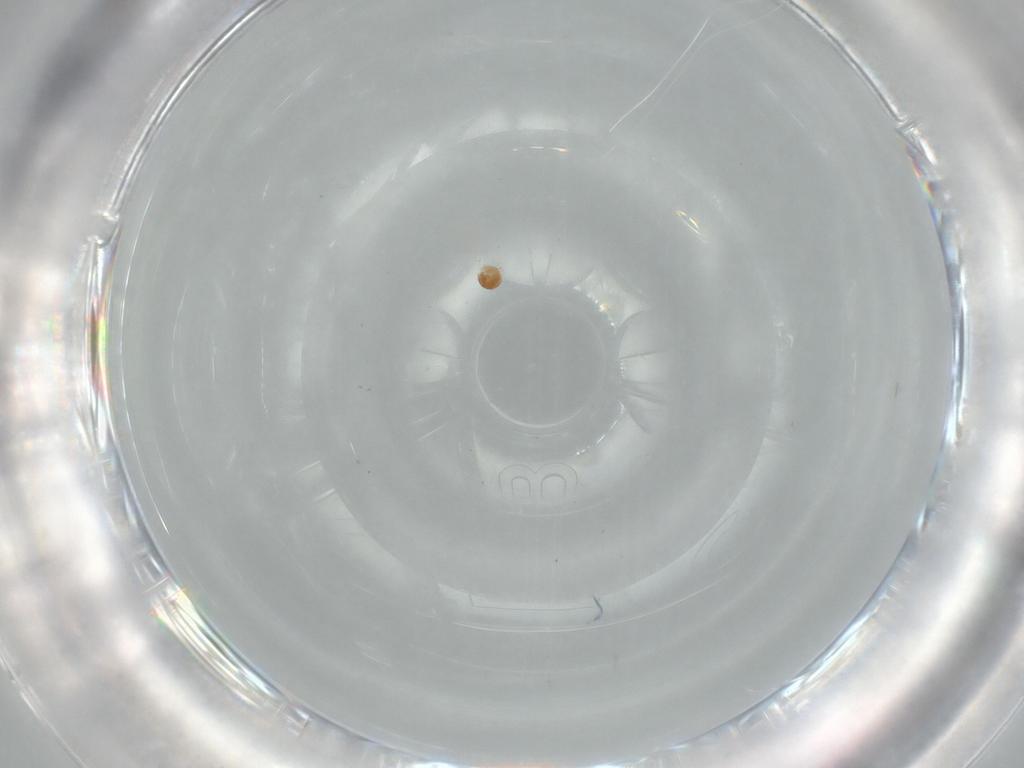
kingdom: Animalia
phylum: Arthropoda
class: Arachnida
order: Trombidiformes
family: Scutacaridae
